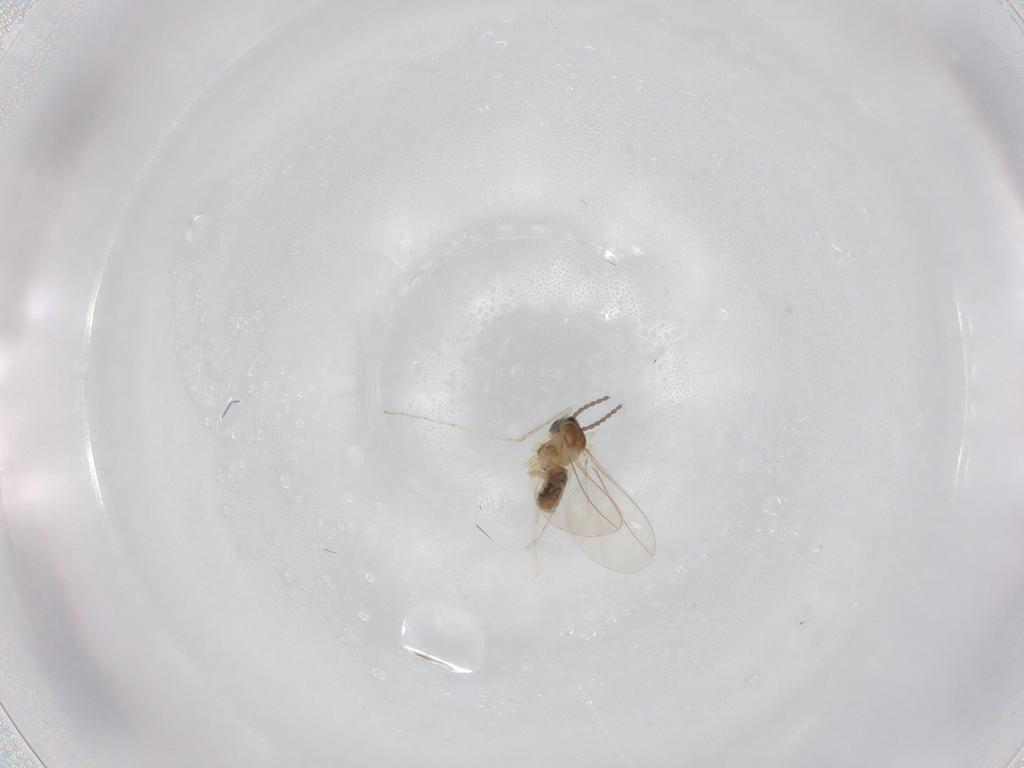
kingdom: Animalia
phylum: Arthropoda
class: Insecta
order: Diptera
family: Cecidomyiidae
